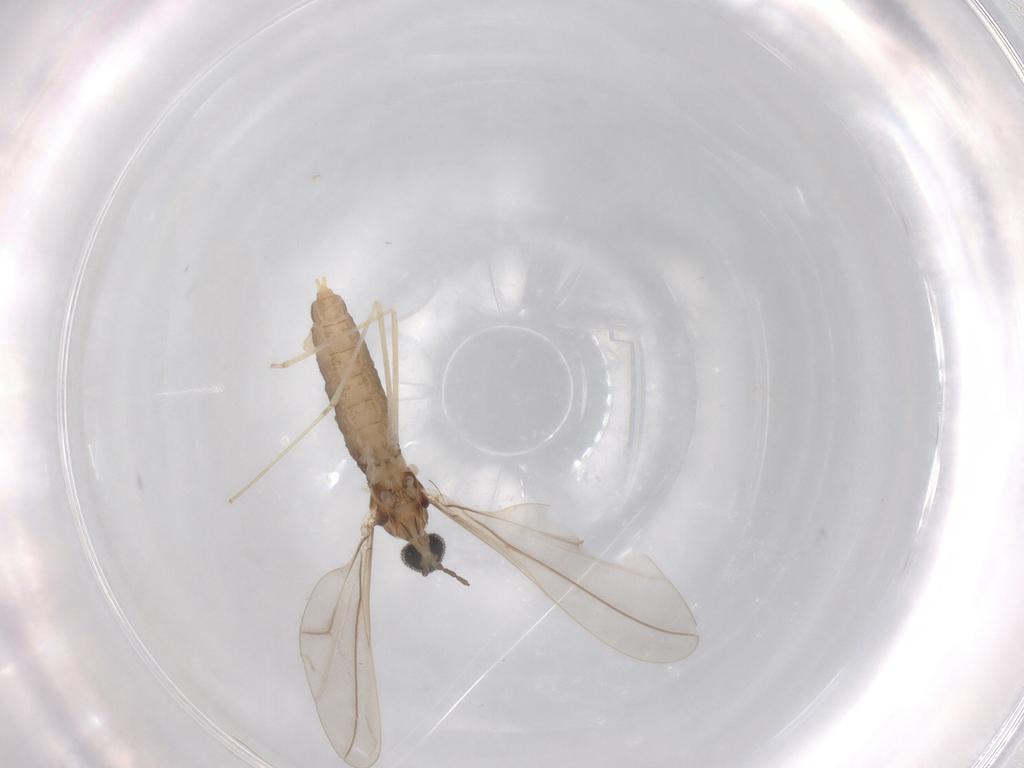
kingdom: Animalia
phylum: Arthropoda
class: Insecta
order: Diptera
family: Cecidomyiidae
